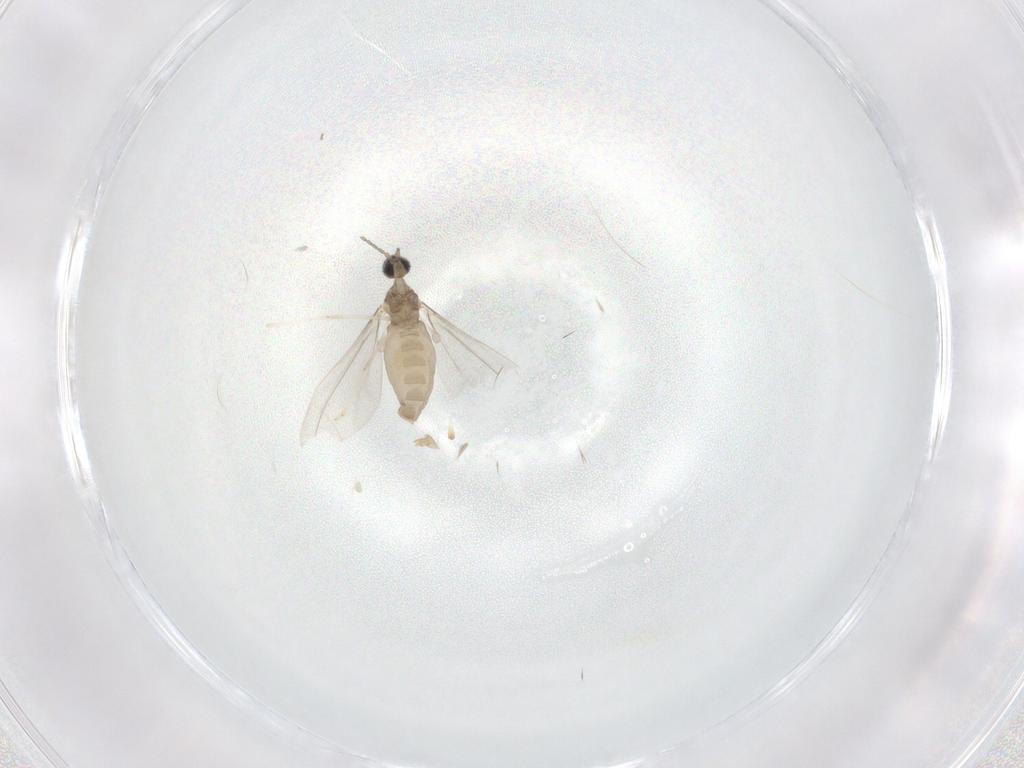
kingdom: Animalia
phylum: Arthropoda
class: Insecta
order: Diptera
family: Cecidomyiidae
